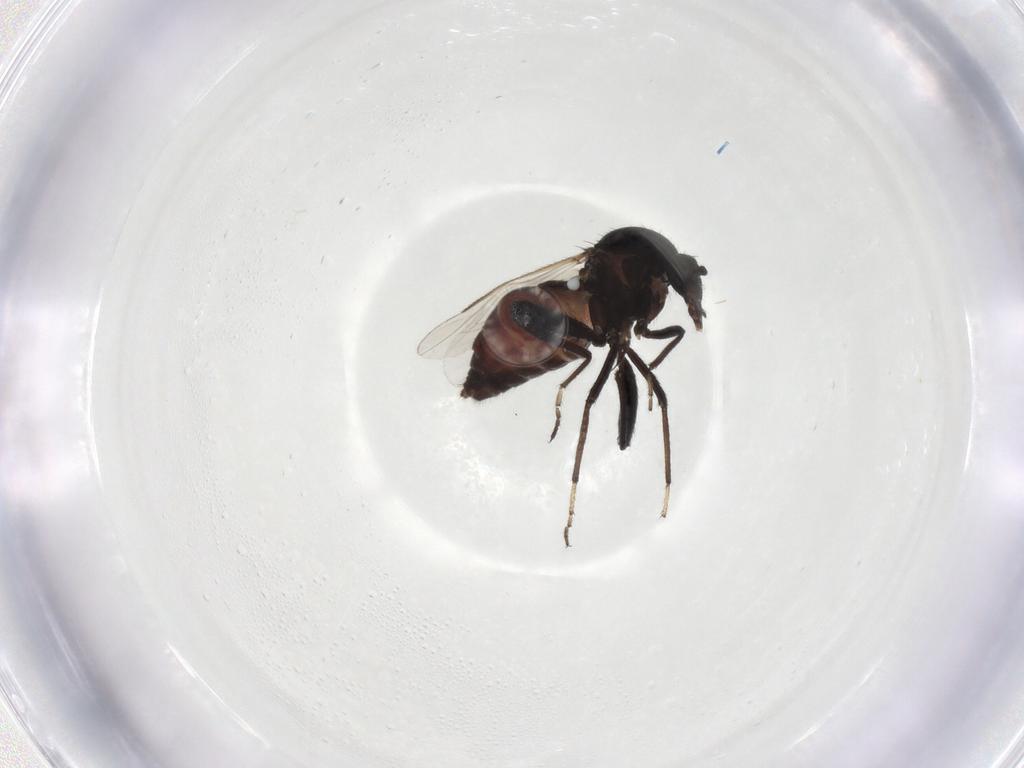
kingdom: Animalia
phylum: Arthropoda
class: Insecta
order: Diptera
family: Ceratopogonidae
